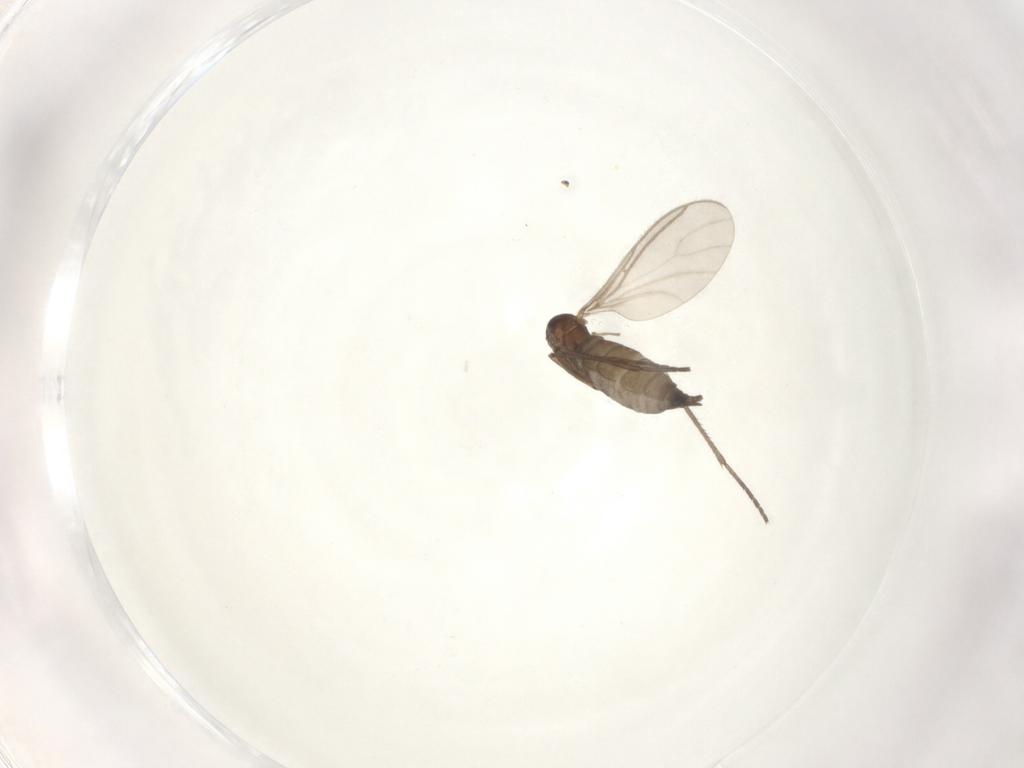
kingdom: Animalia
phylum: Arthropoda
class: Insecta
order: Diptera
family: Sciaridae
